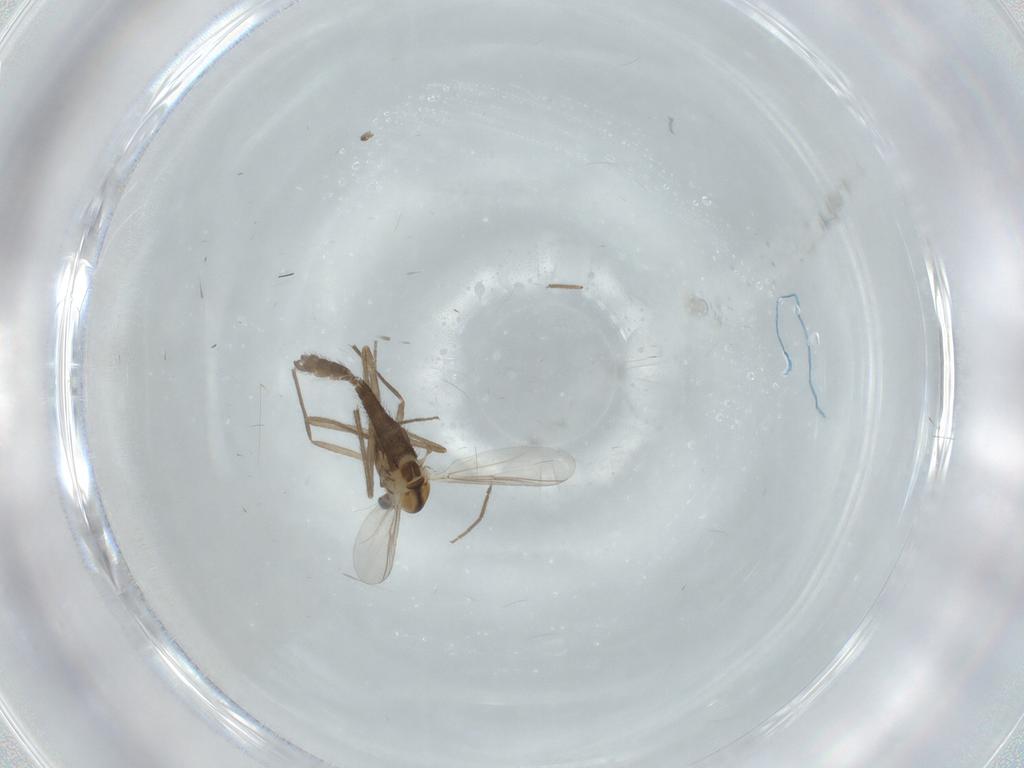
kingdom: Animalia
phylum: Arthropoda
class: Insecta
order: Diptera
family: Chironomidae
